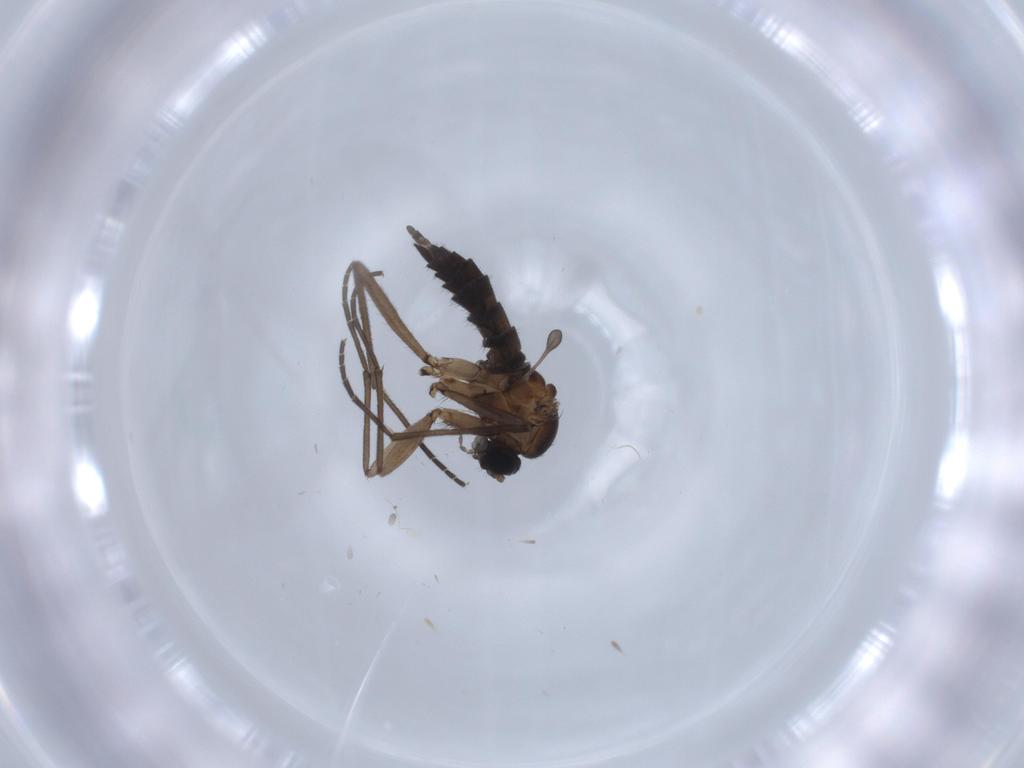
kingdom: Animalia
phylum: Arthropoda
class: Insecta
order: Diptera
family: Sciaridae
